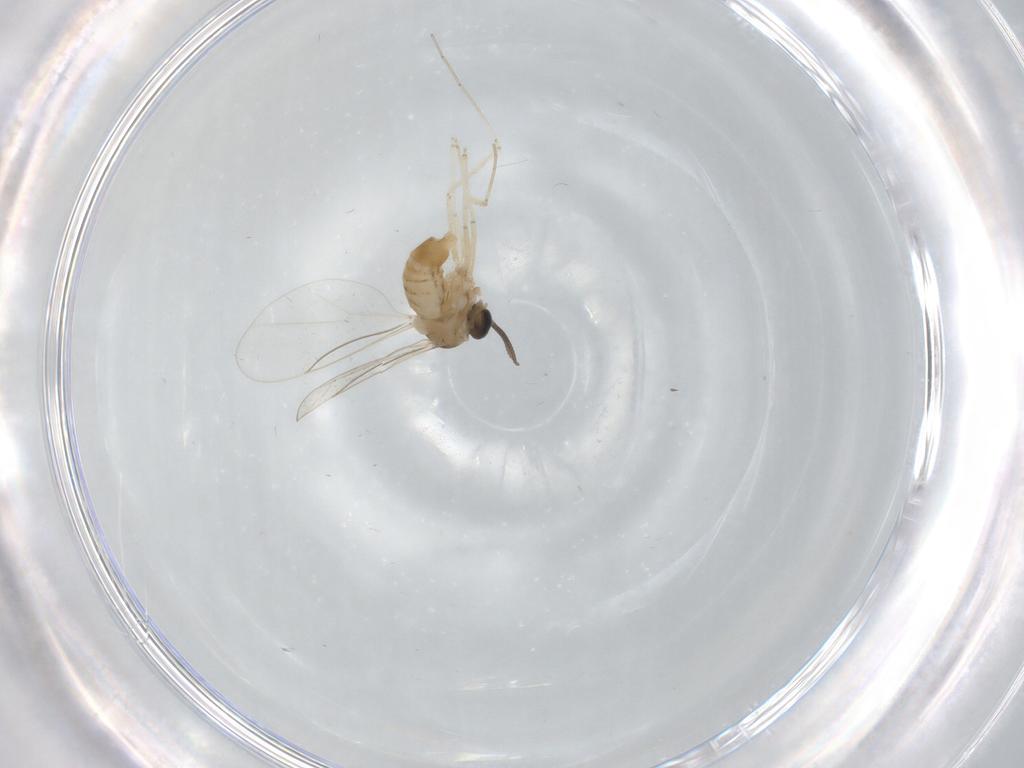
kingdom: Animalia
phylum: Arthropoda
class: Insecta
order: Diptera
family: Cecidomyiidae
